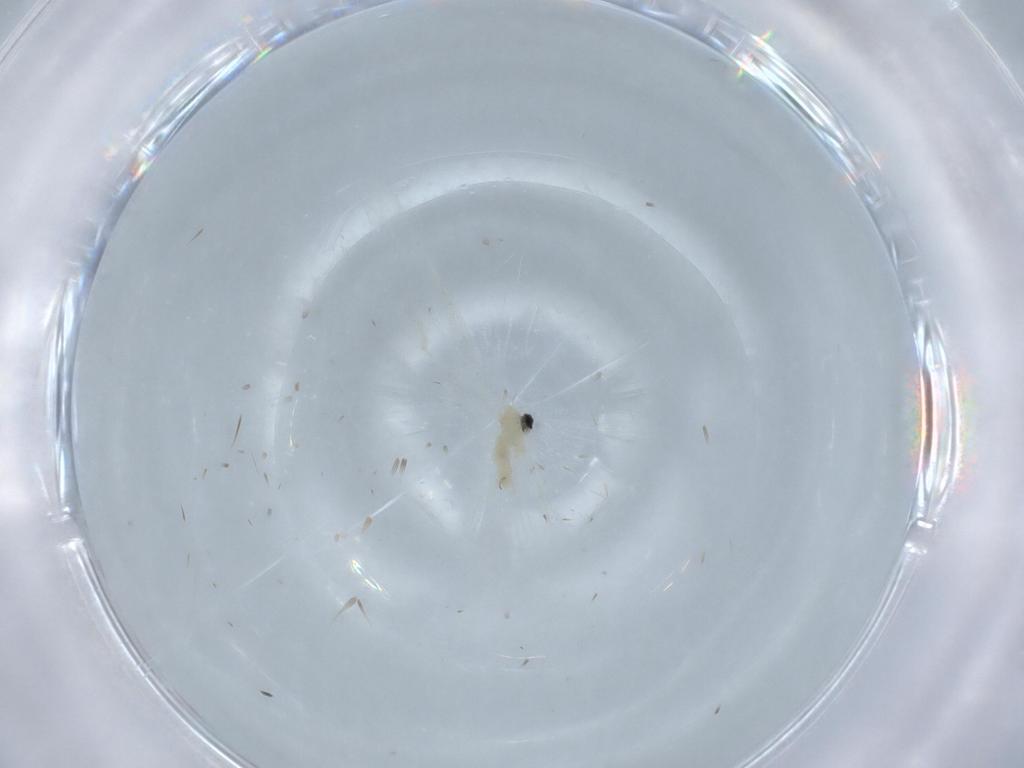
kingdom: Animalia
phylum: Arthropoda
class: Insecta
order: Diptera
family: Cecidomyiidae
